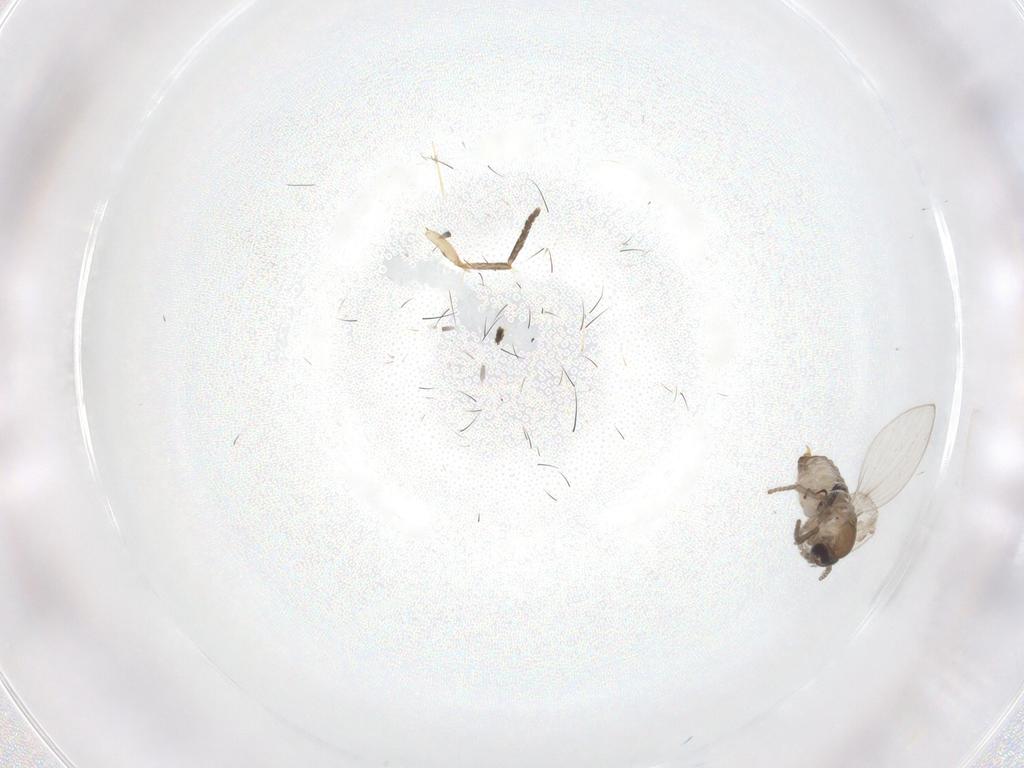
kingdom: Animalia
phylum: Arthropoda
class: Insecta
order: Diptera
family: Psychodidae
